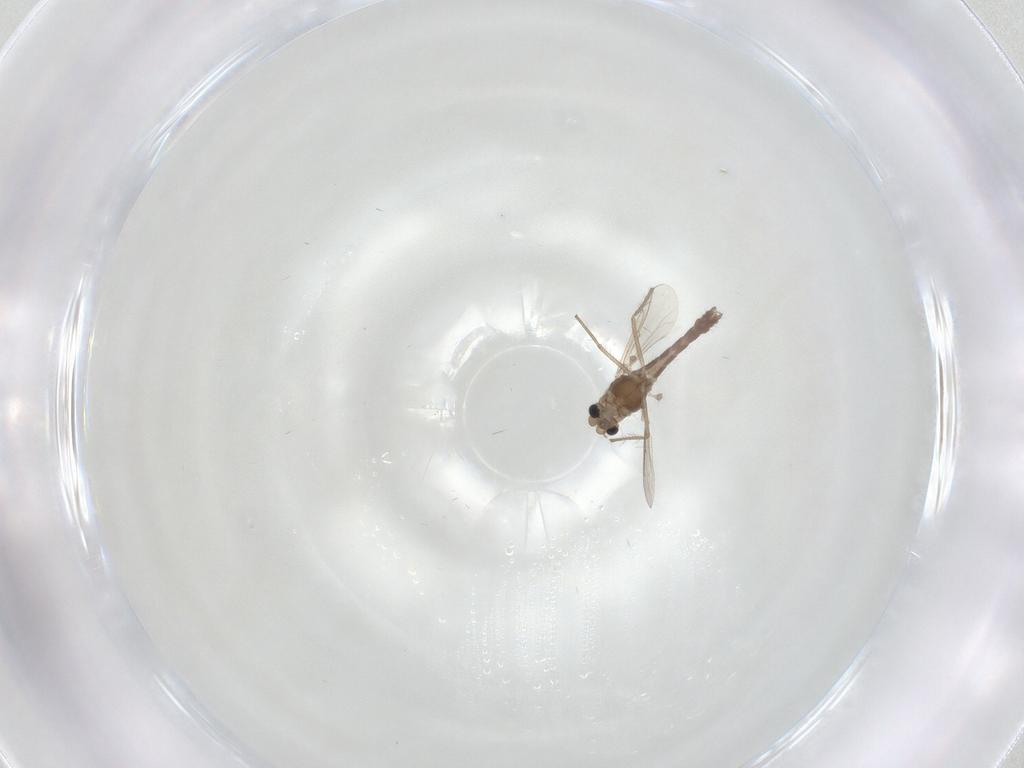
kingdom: Animalia
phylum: Arthropoda
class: Insecta
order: Diptera
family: Chironomidae
